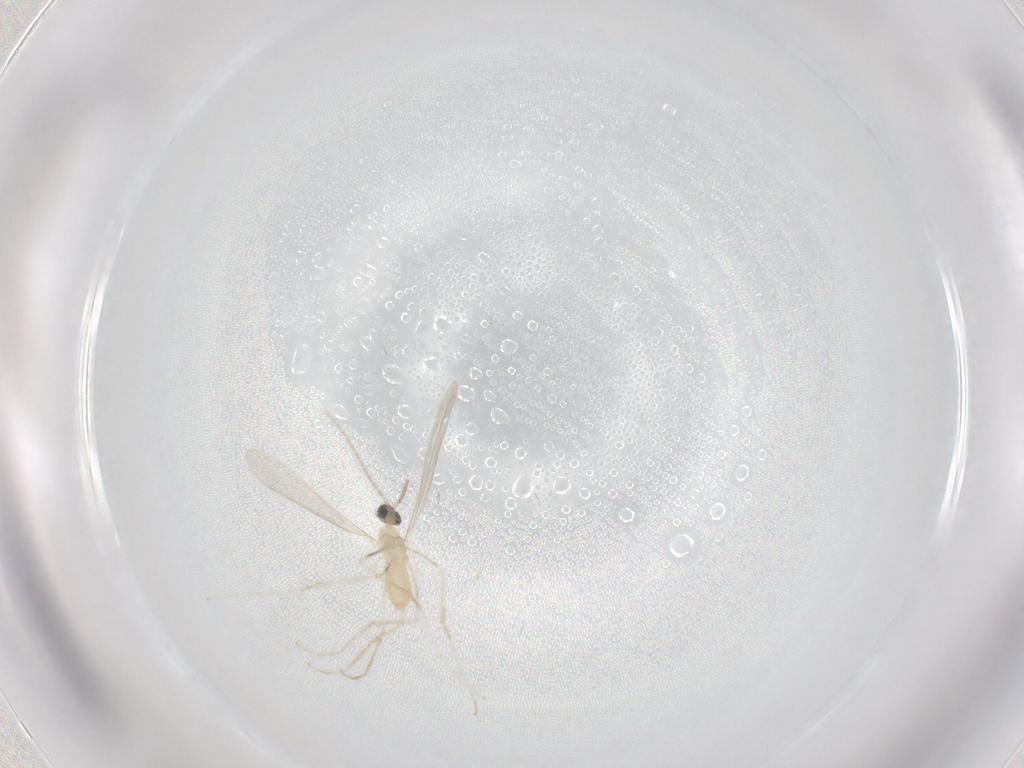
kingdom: Animalia
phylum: Arthropoda
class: Insecta
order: Diptera
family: Cecidomyiidae
